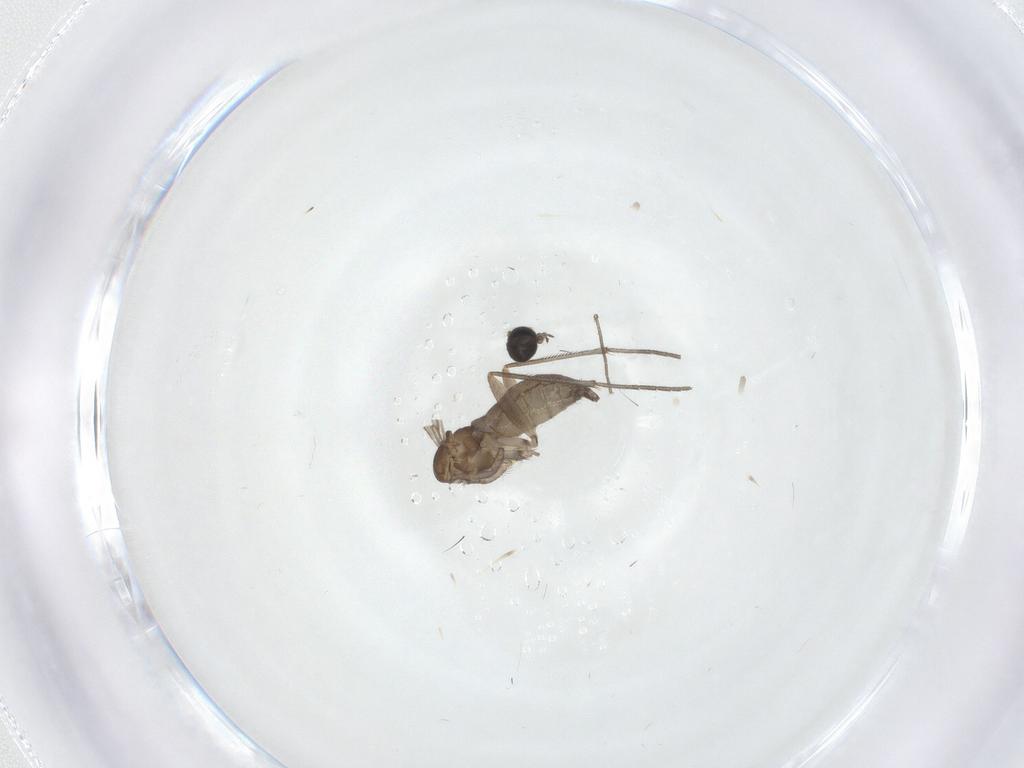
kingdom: Animalia
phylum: Arthropoda
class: Insecta
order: Diptera
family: Sciaridae
